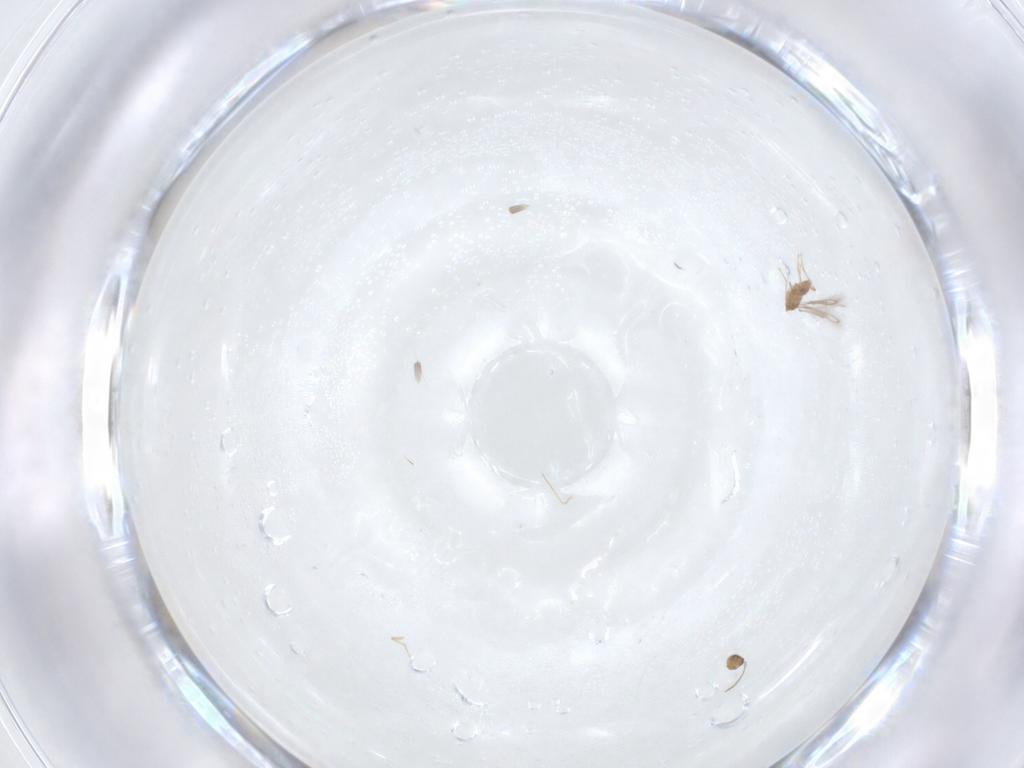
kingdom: Animalia
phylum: Arthropoda
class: Insecta
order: Hymenoptera
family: Mymaridae
